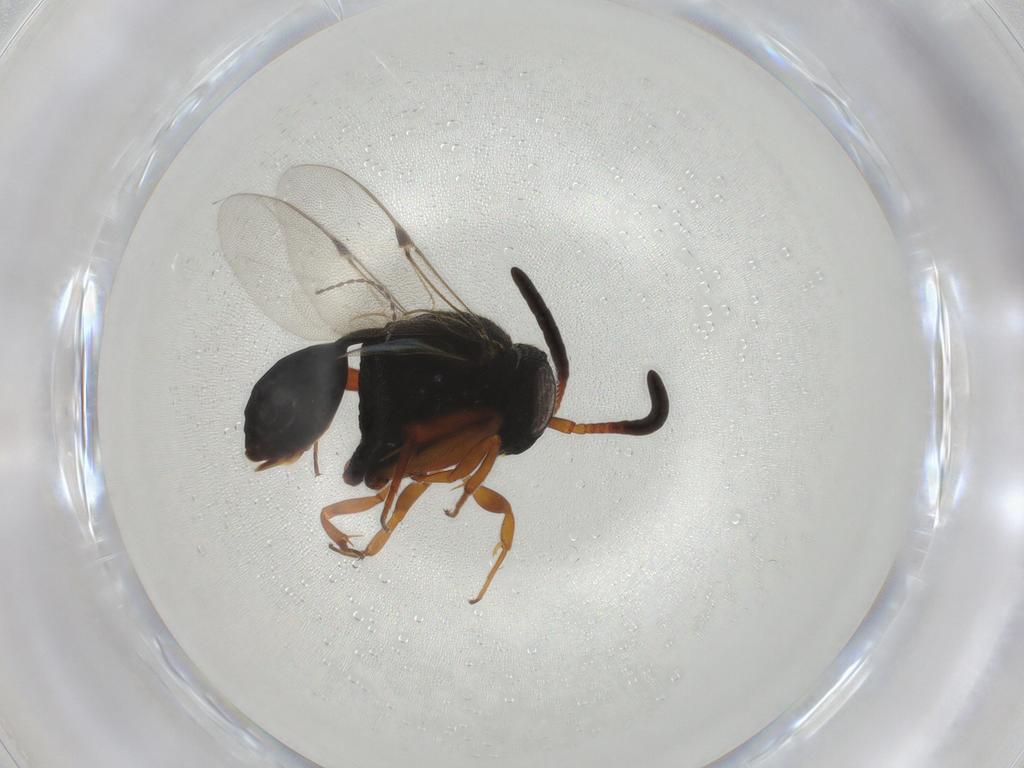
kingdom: Animalia
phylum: Arthropoda
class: Insecta
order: Hymenoptera
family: Evaniidae
